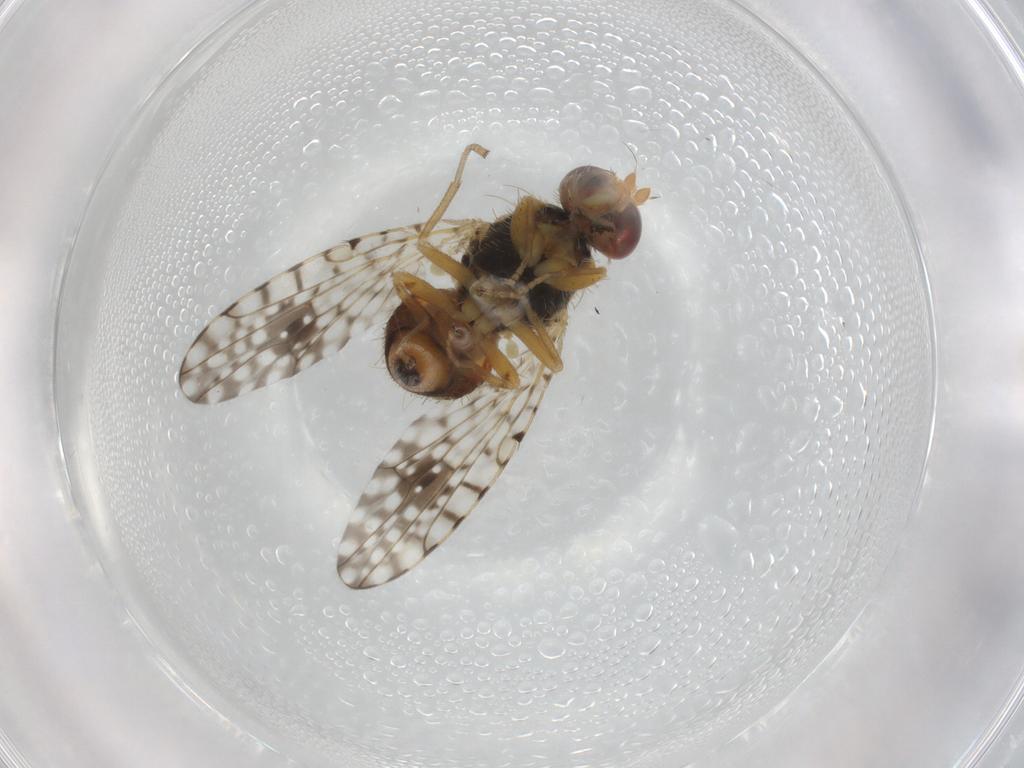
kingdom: Animalia
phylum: Arthropoda
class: Insecta
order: Diptera
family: Tephritidae
